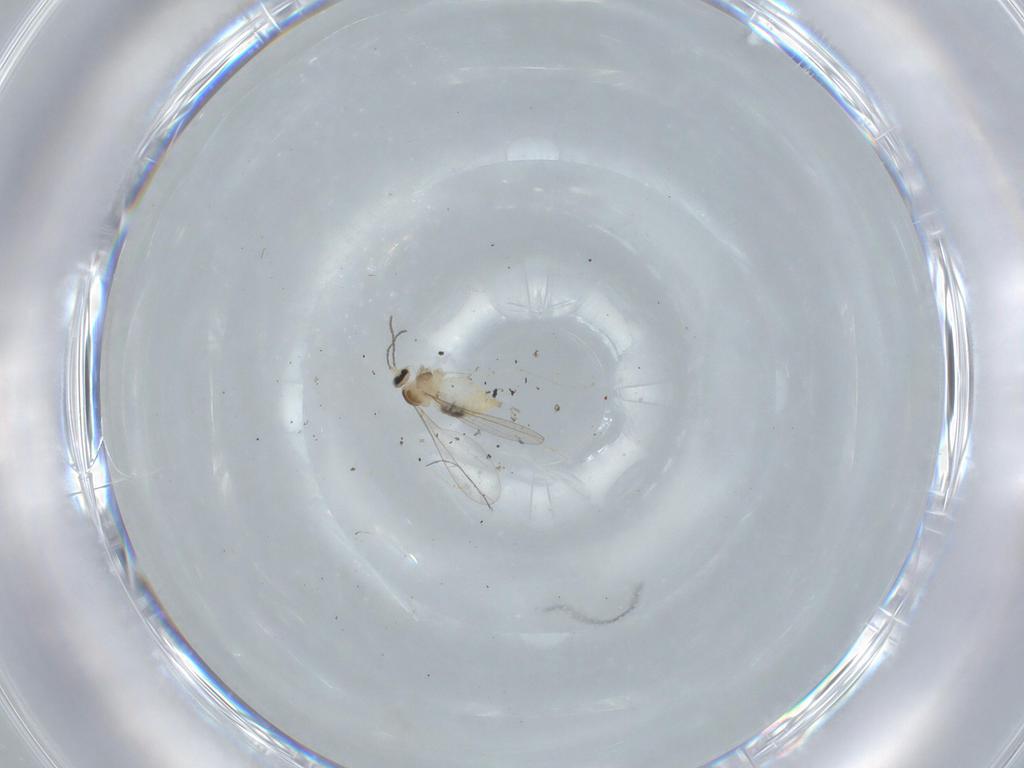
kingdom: Animalia
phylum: Arthropoda
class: Insecta
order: Diptera
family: Cecidomyiidae
